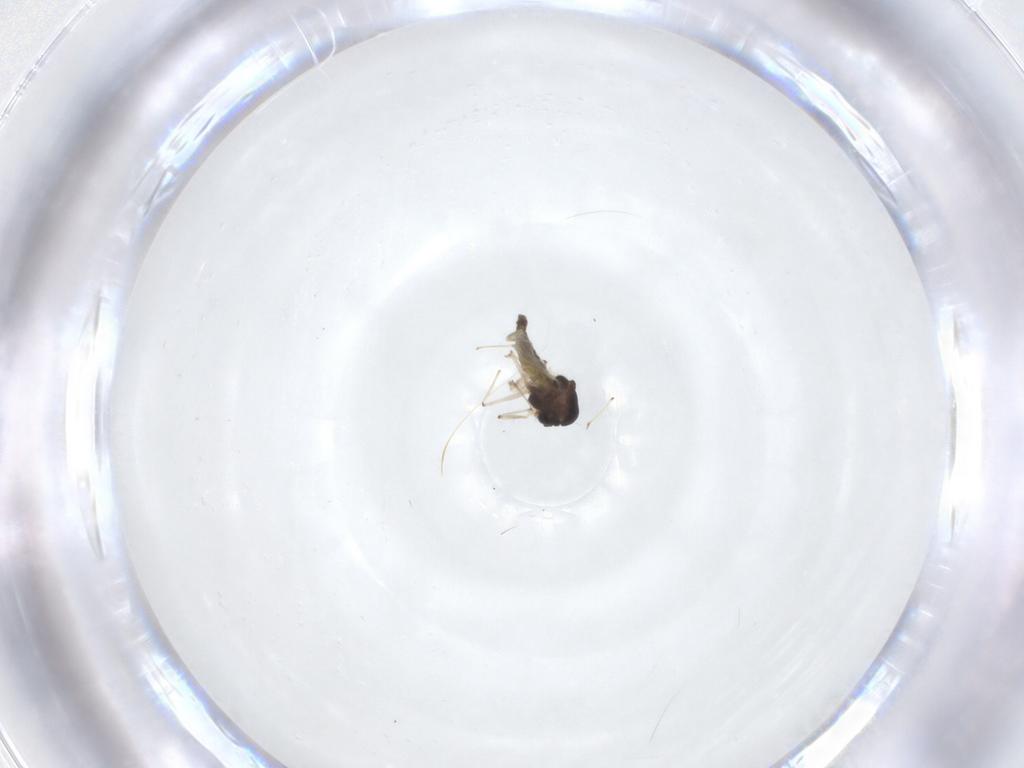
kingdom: Animalia
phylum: Arthropoda
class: Insecta
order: Diptera
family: Chironomidae
